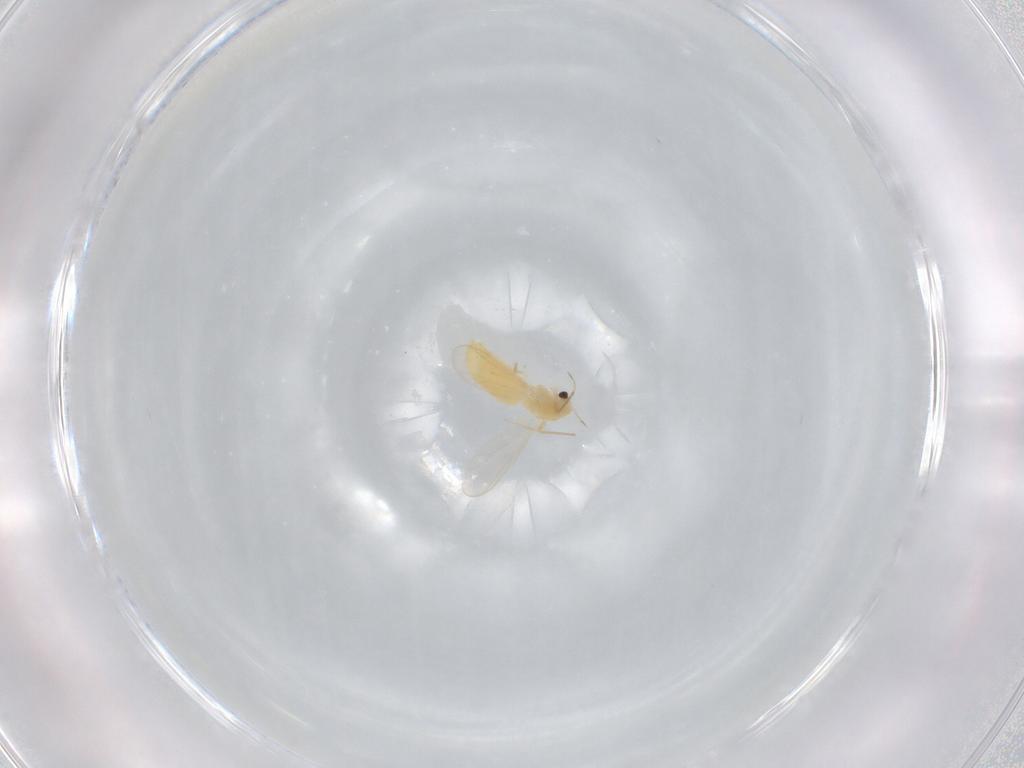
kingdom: Animalia
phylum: Arthropoda
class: Insecta
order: Diptera
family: Chironomidae
